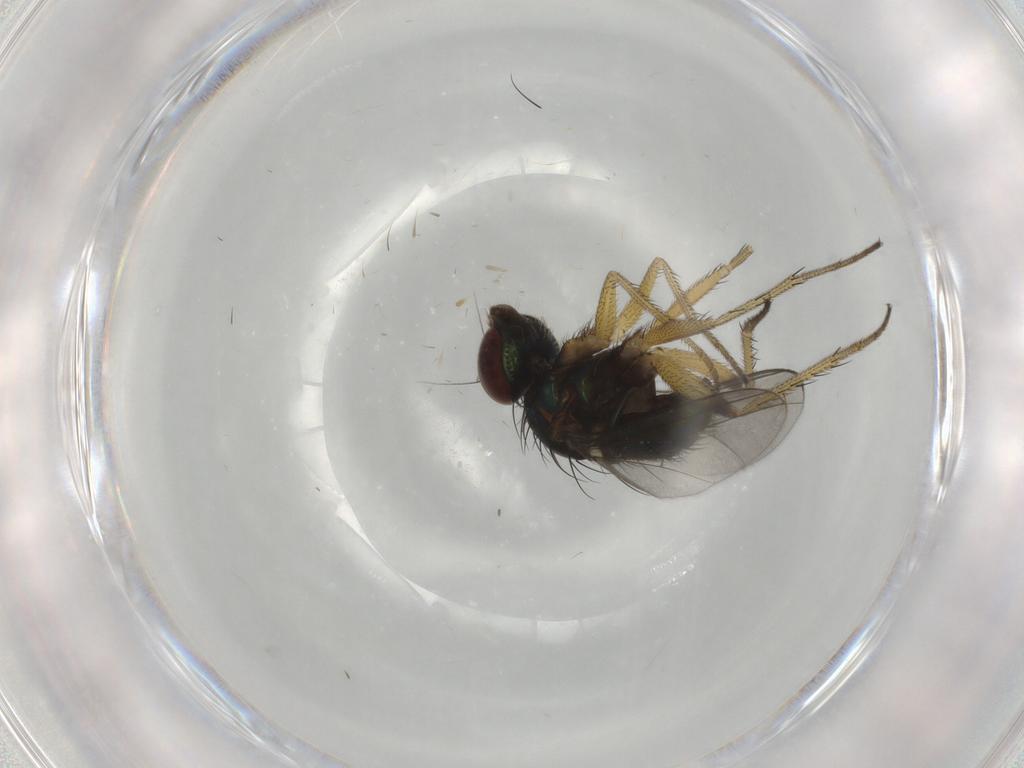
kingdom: Animalia
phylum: Arthropoda
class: Insecta
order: Diptera
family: Dolichopodidae
